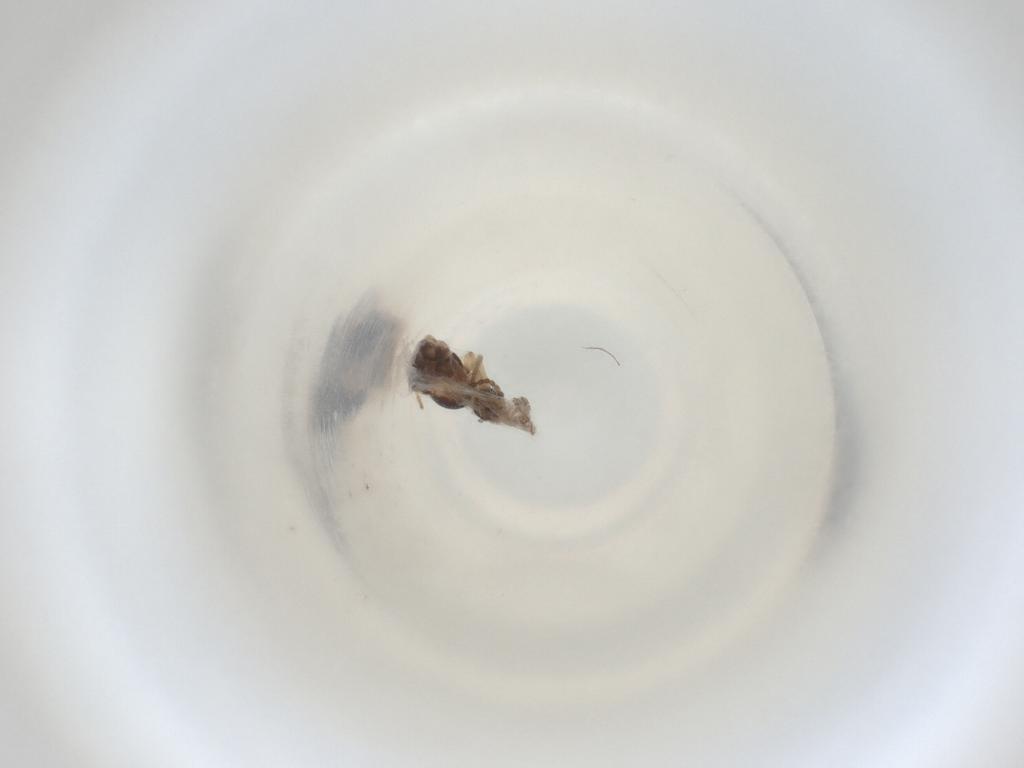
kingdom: Animalia
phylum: Arthropoda
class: Insecta
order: Diptera
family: Cecidomyiidae
